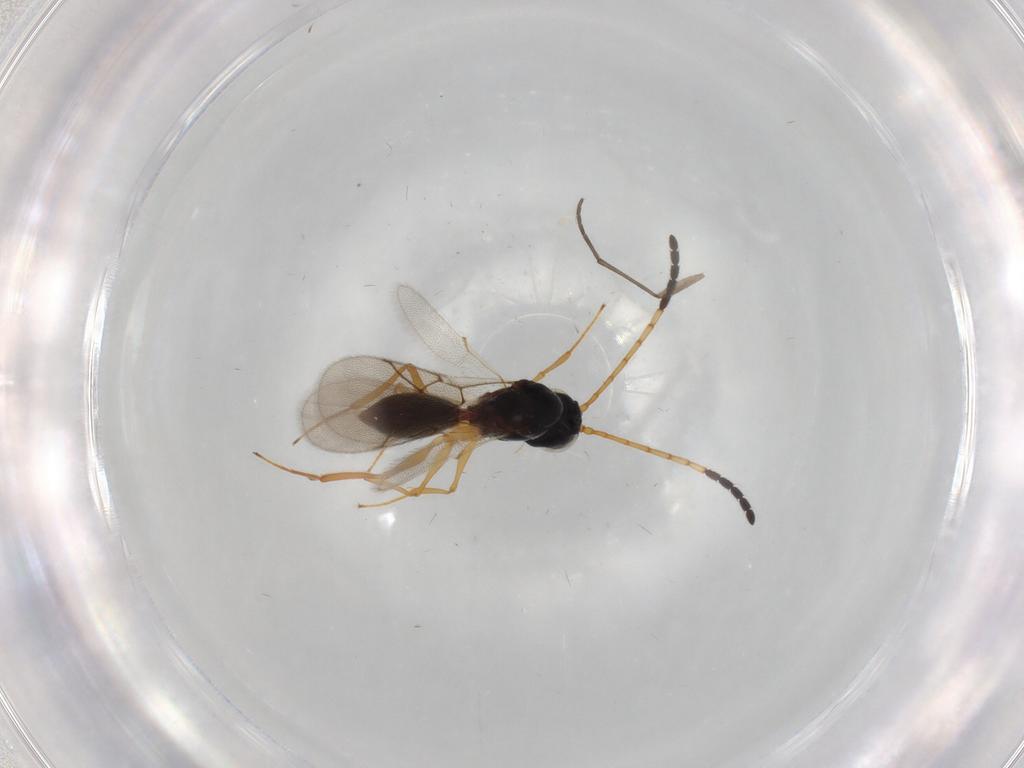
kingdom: Animalia
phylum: Arthropoda
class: Insecta
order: Hymenoptera
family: Figitidae
